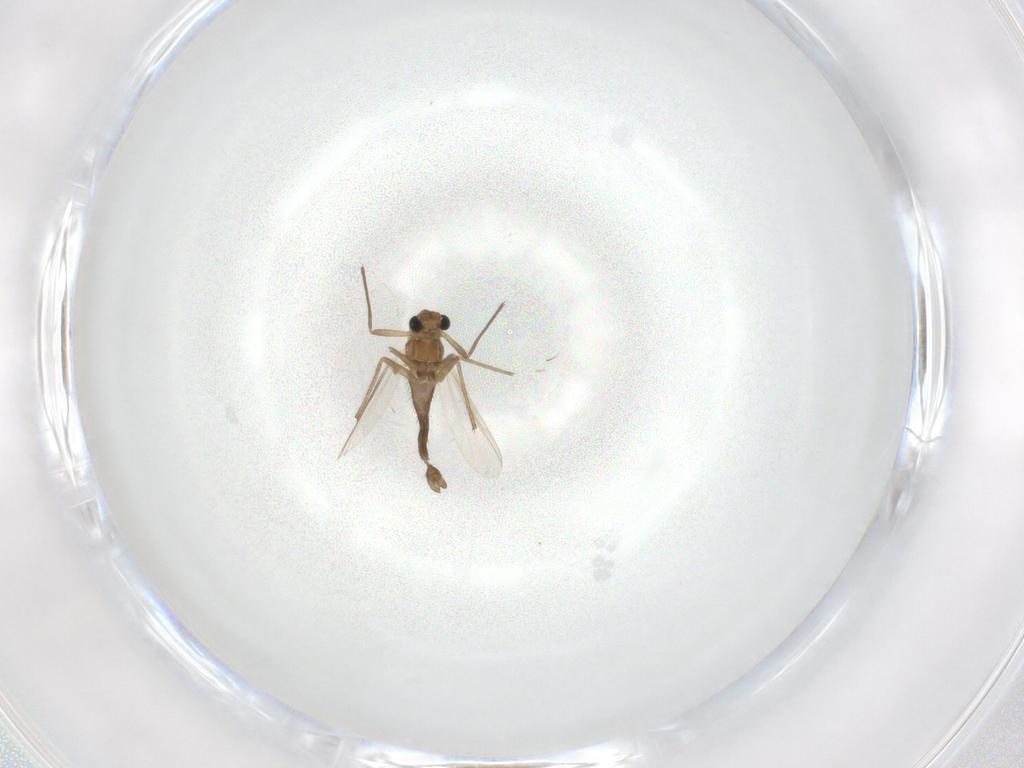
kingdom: Animalia
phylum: Arthropoda
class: Insecta
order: Diptera
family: Chironomidae
